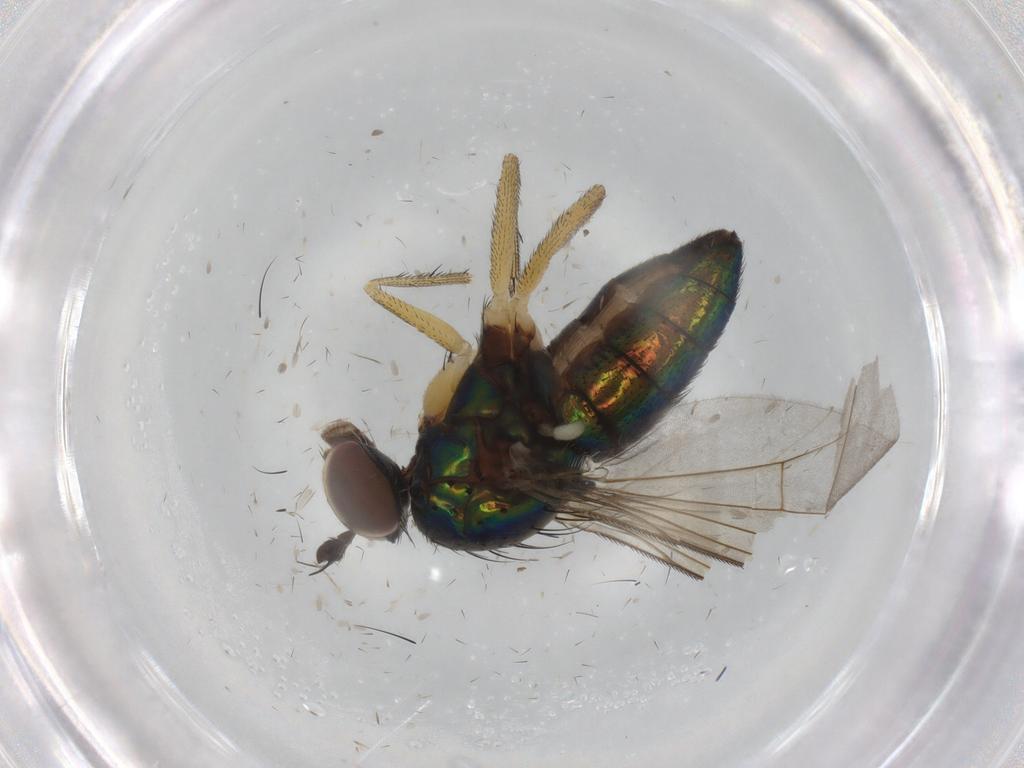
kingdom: Animalia
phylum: Arthropoda
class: Insecta
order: Diptera
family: Dolichopodidae
